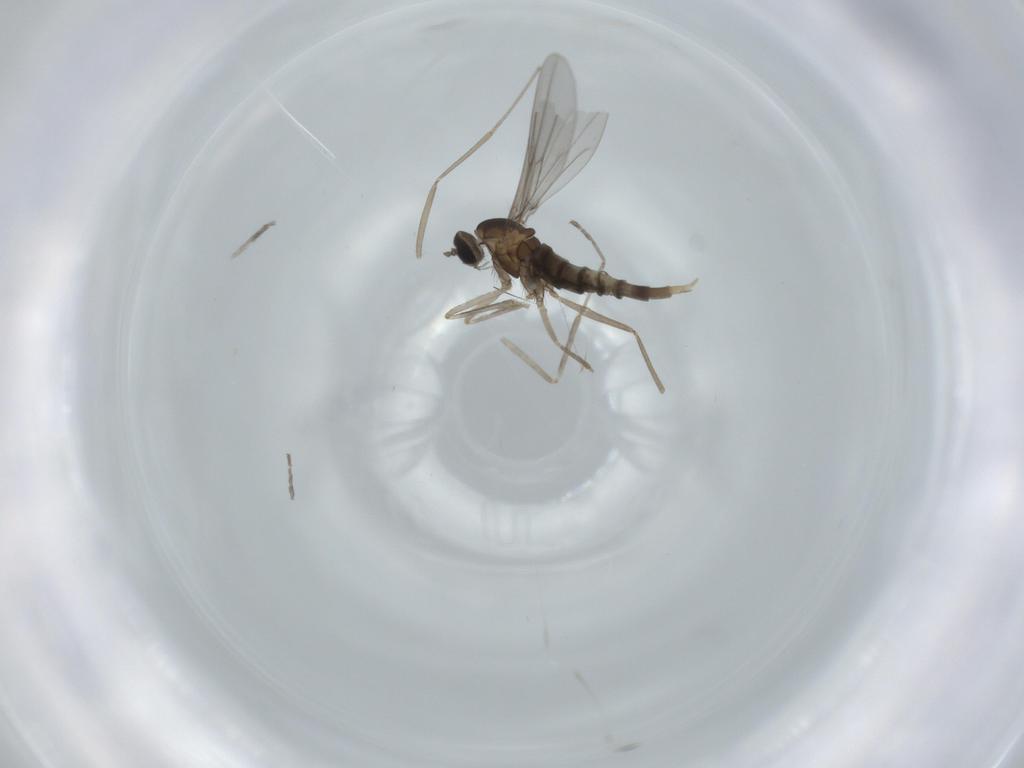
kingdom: Animalia
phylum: Arthropoda
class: Insecta
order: Diptera
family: Cecidomyiidae
